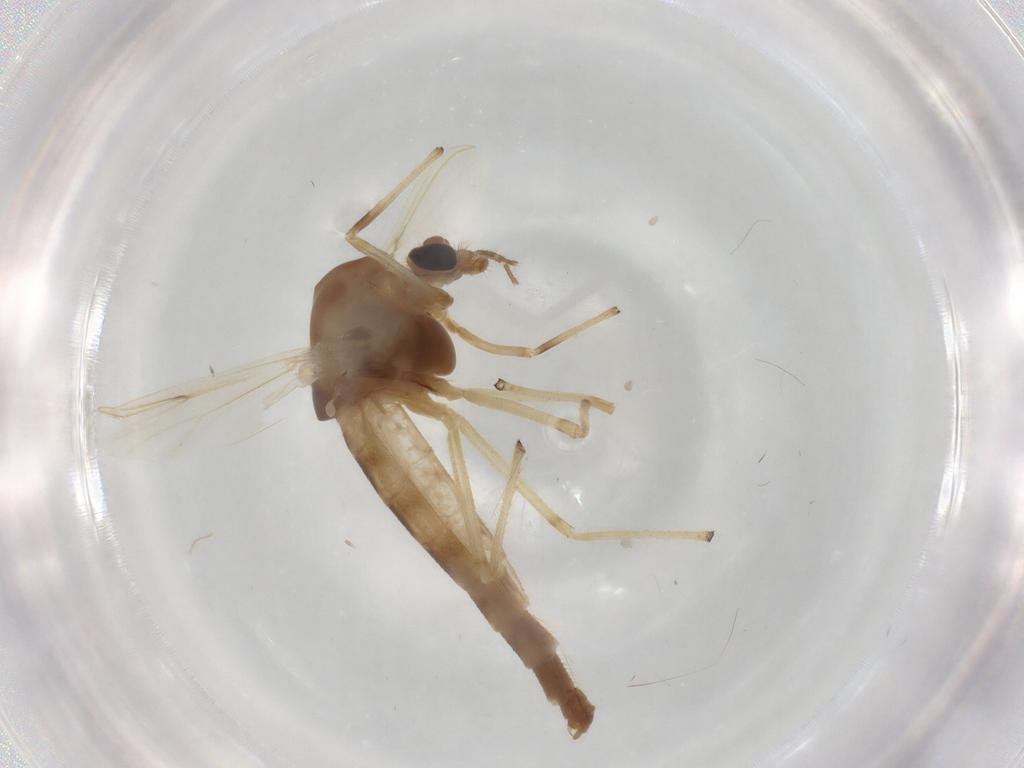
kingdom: Animalia
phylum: Arthropoda
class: Insecta
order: Diptera
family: Chironomidae
